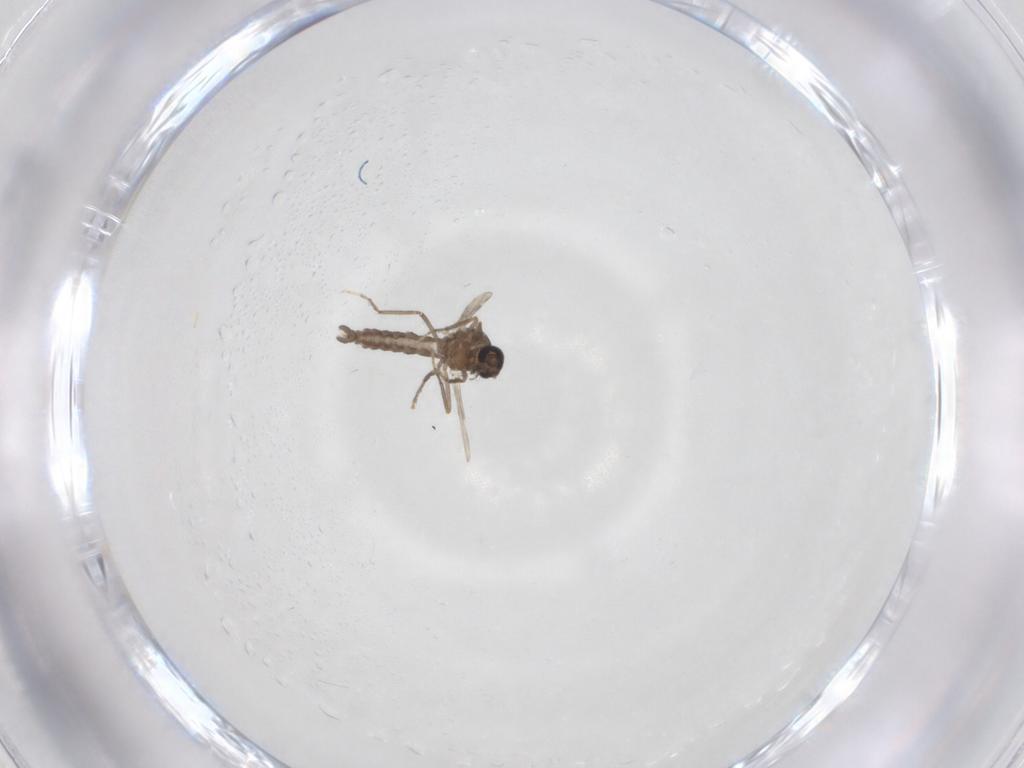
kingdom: Animalia
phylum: Arthropoda
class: Insecta
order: Diptera
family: Ceratopogonidae
